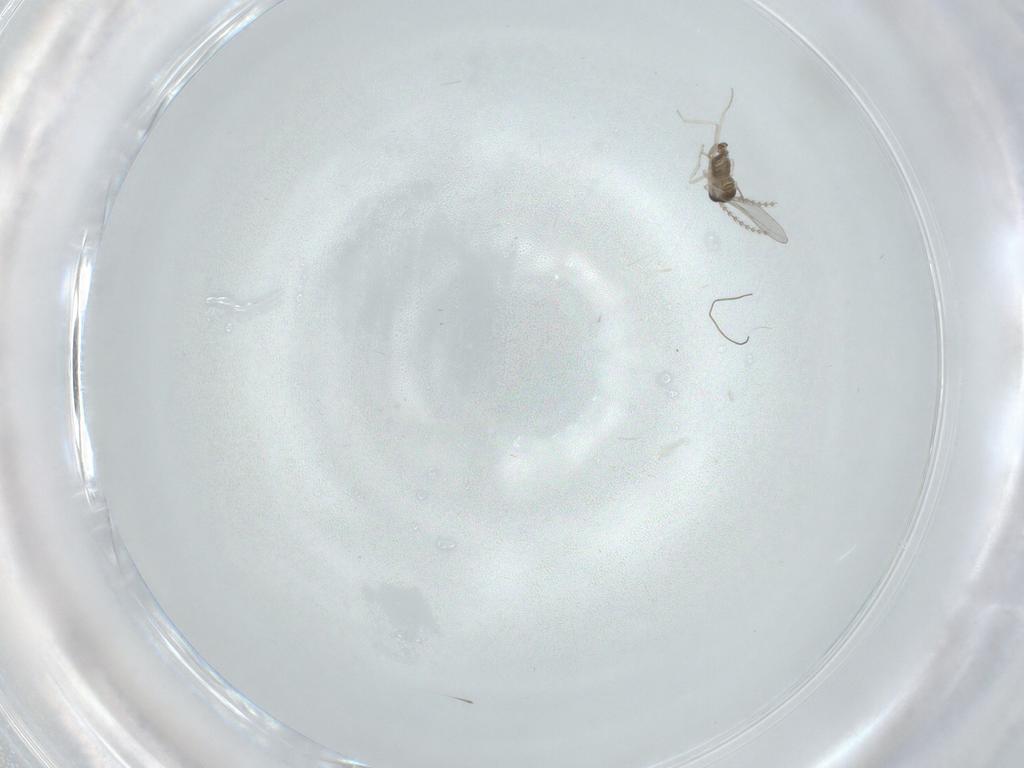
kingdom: Animalia
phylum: Arthropoda
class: Insecta
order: Diptera
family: Cecidomyiidae
